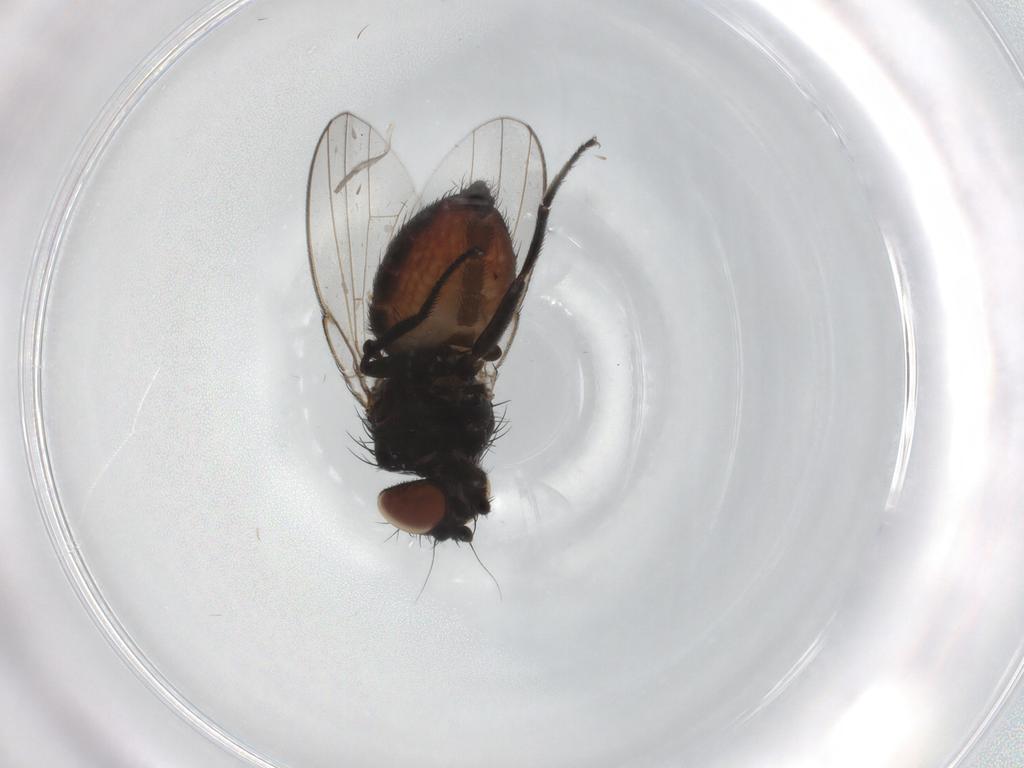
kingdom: Animalia
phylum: Arthropoda
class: Insecta
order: Diptera
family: Milichiidae
